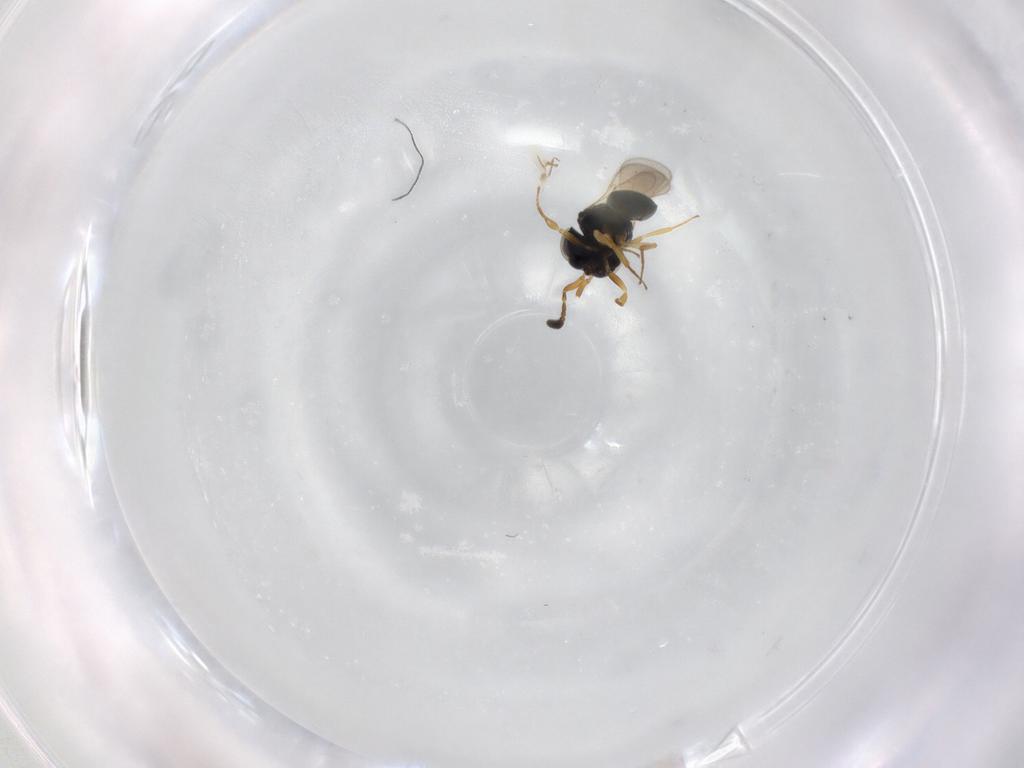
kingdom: Animalia
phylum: Arthropoda
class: Insecta
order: Hymenoptera
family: Scelionidae
